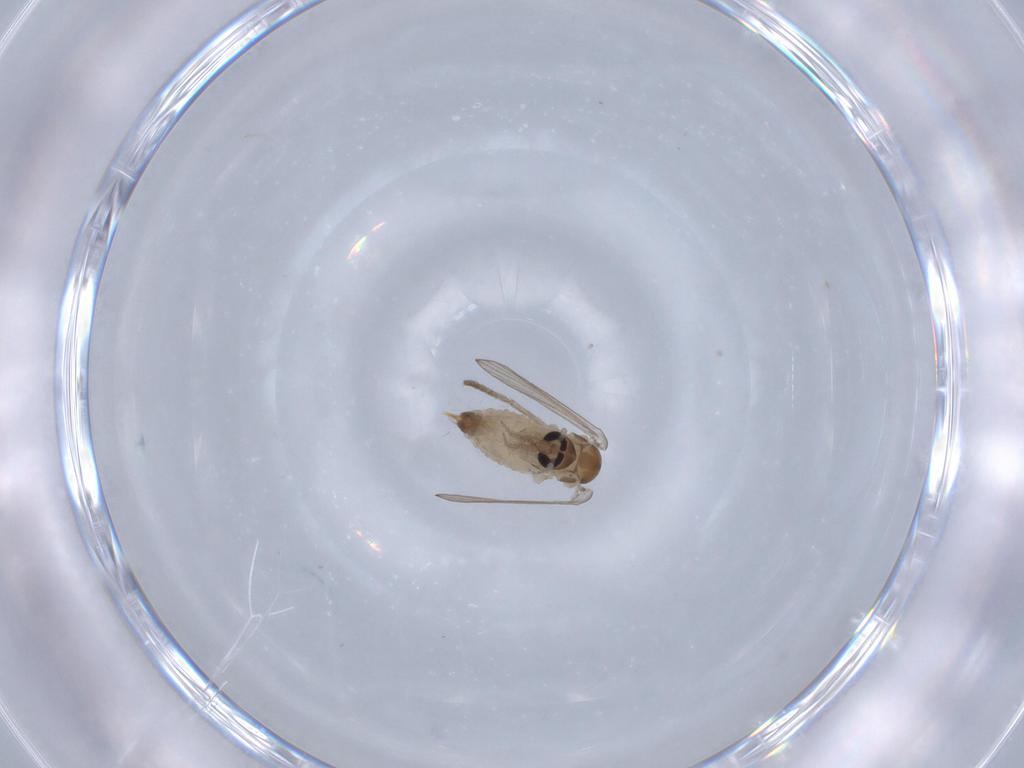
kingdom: Animalia
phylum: Arthropoda
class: Insecta
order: Diptera
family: Psychodidae
